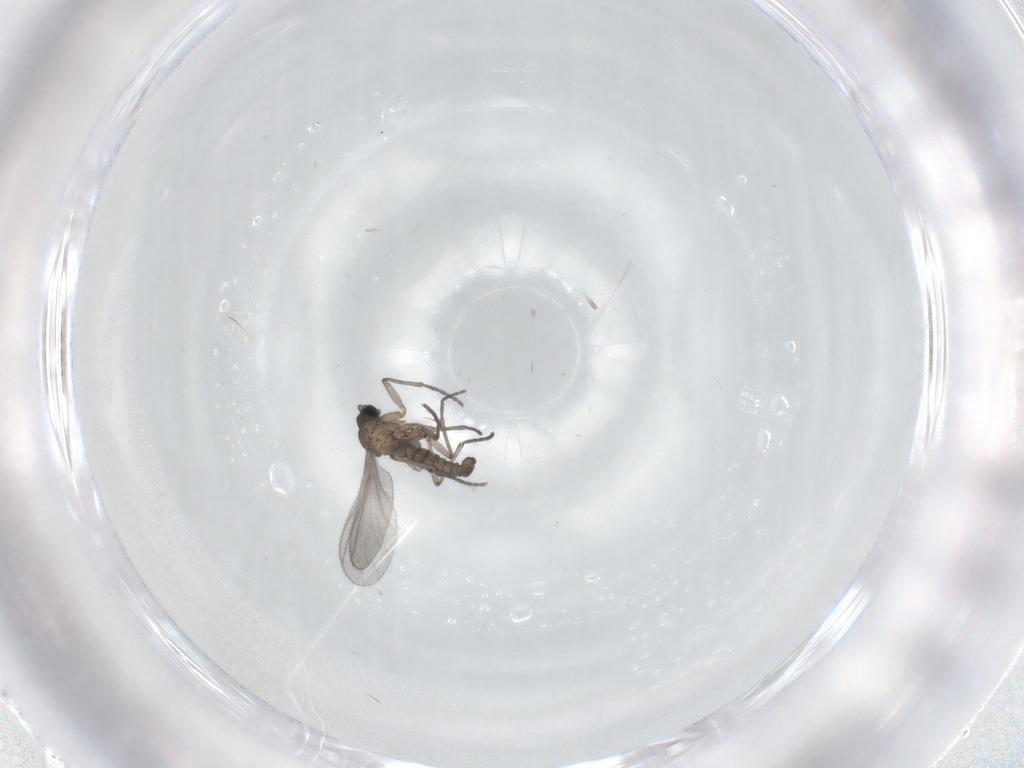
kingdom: Animalia
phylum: Arthropoda
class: Insecta
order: Diptera
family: Sciaridae
